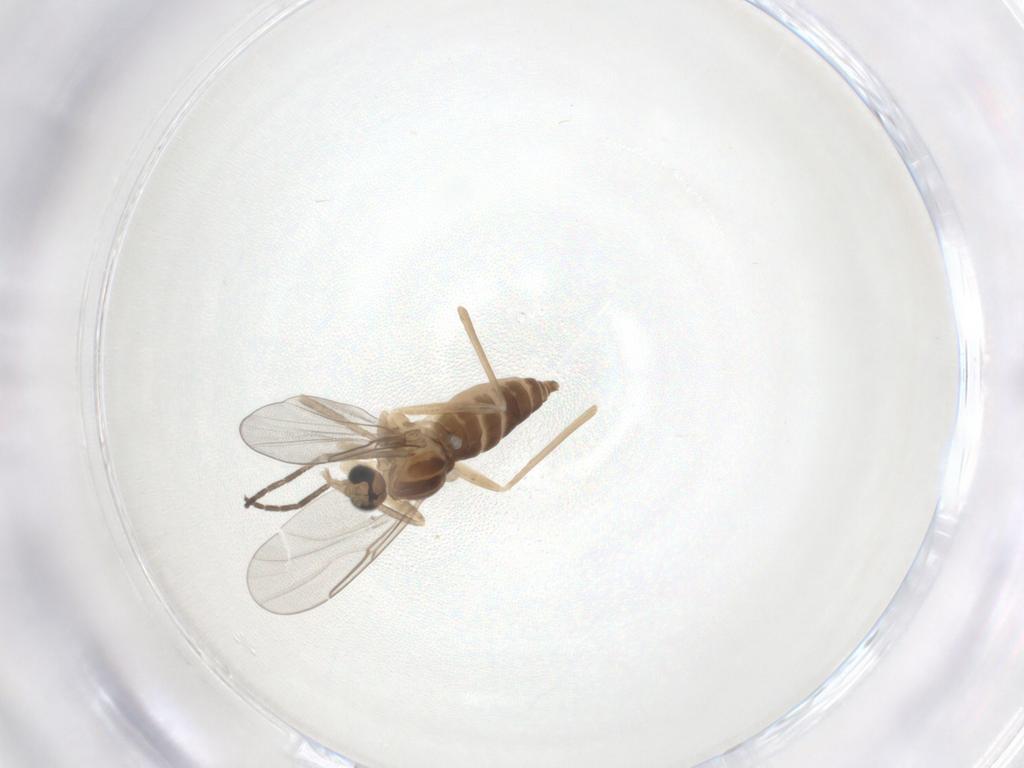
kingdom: Animalia
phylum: Arthropoda
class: Insecta
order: Diptera
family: Cecidomyiidae
